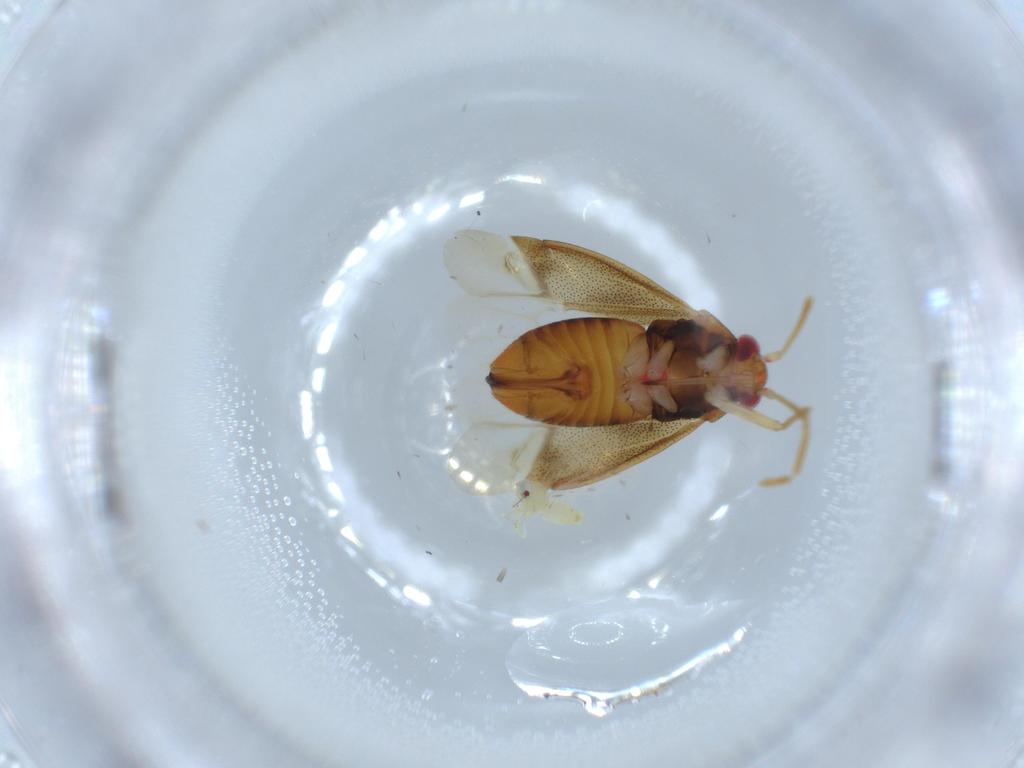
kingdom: Animalia
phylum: Arthropoda
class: Insecta
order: Hemiptera
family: Miridae
